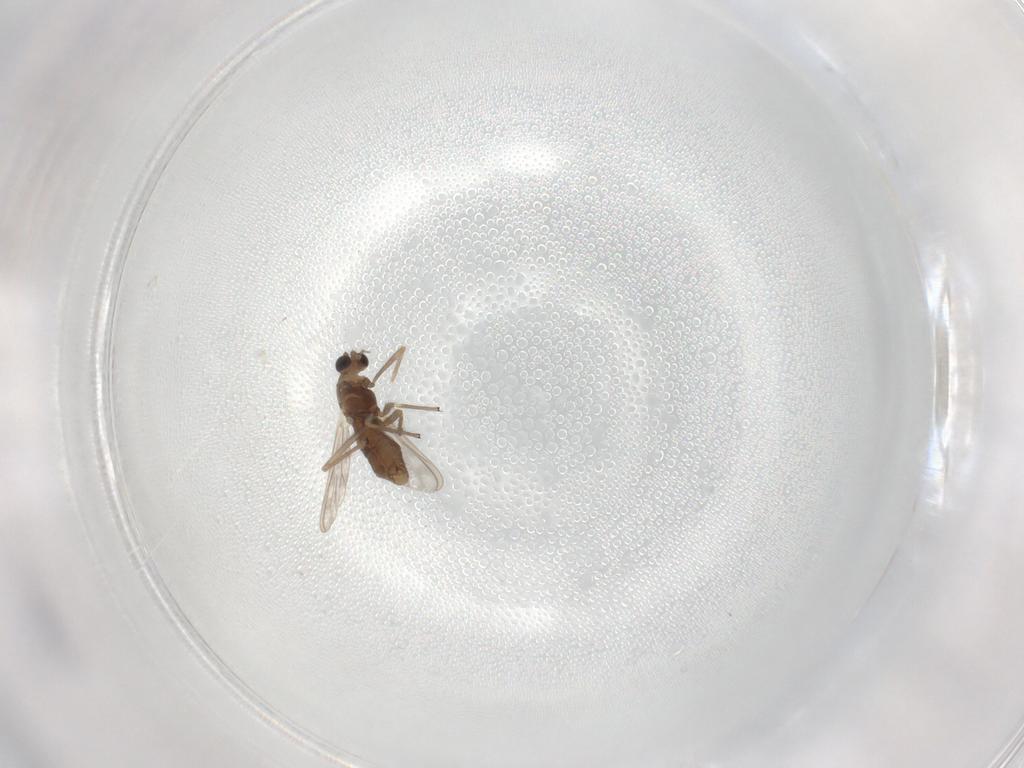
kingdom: Animalia
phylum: Arthropoda
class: Insecta
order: Diptera
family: Chironomidae
